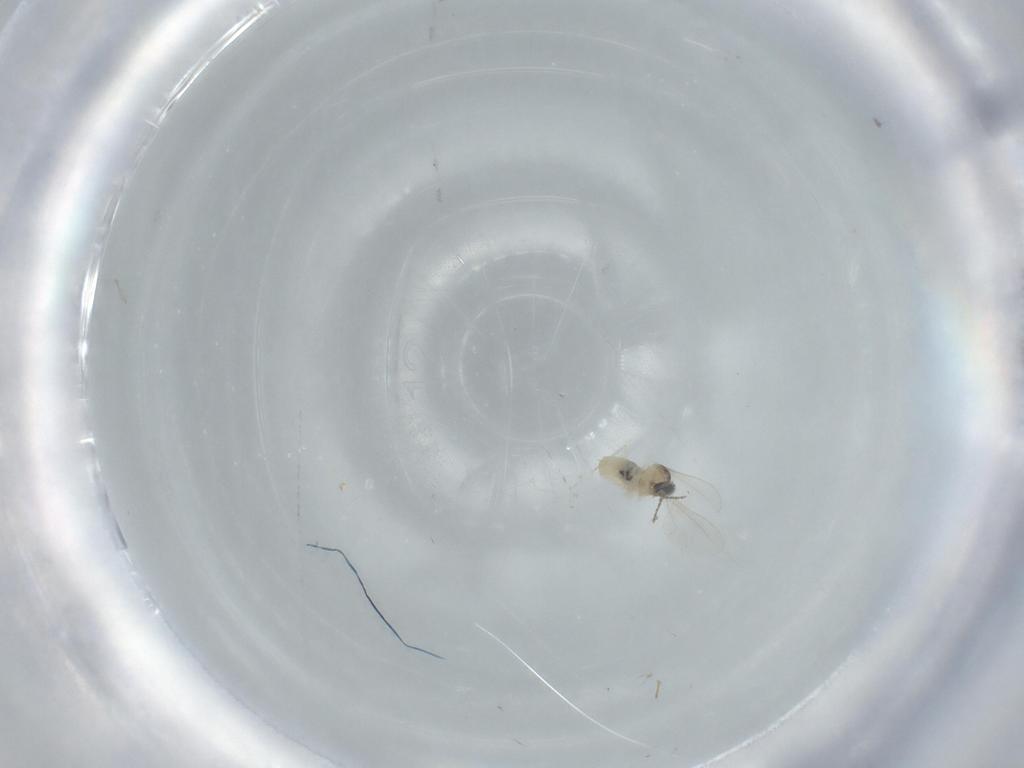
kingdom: Animalia
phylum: Arthropoda
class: Insecta
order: Diptera
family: Cecidomyiidae
